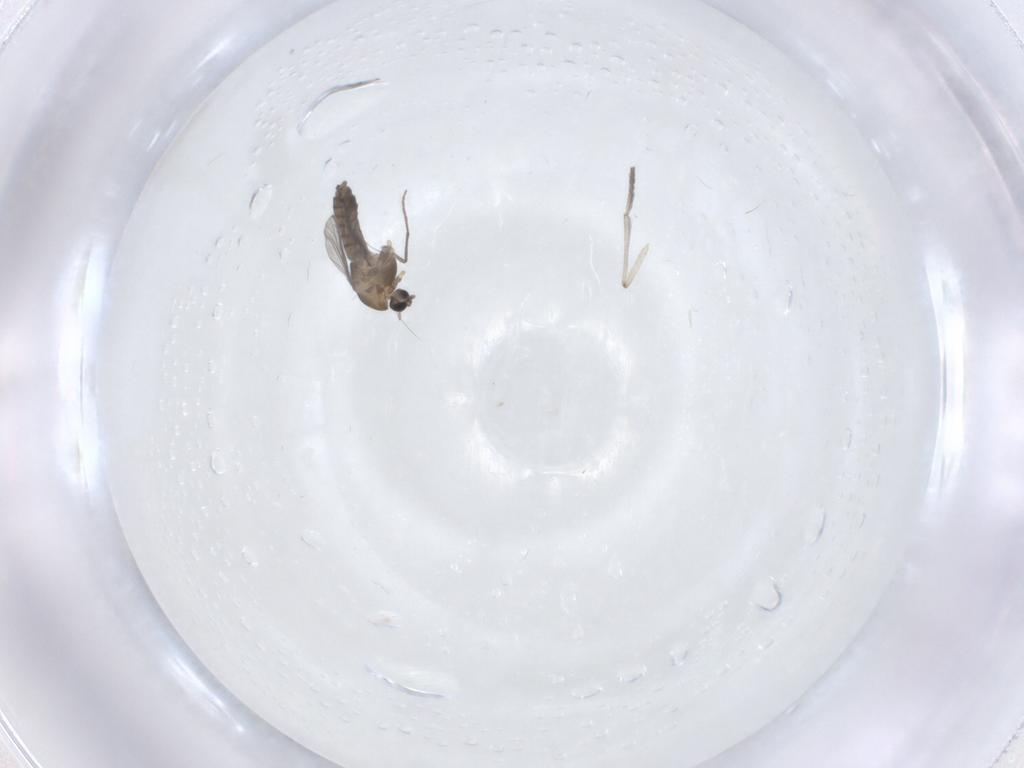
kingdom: Animalia
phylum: Arthropoda
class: Insecta
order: Diptera
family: Chironomidae
